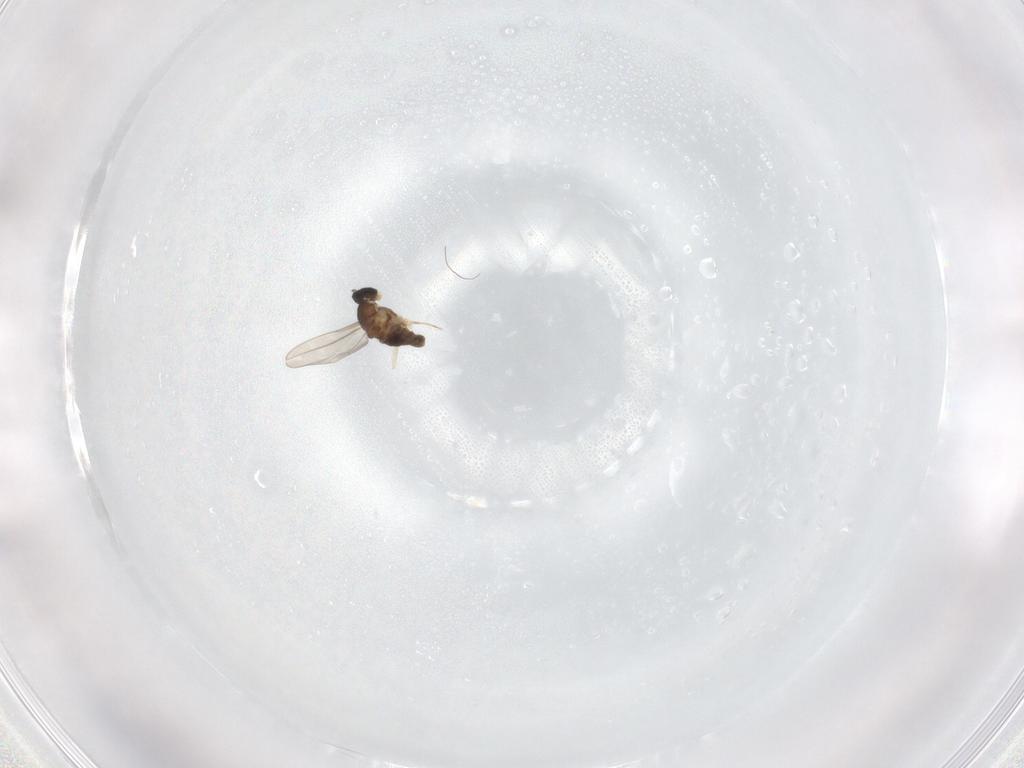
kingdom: Animalia
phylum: Arthropoda
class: Insecta
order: Diptera
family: Cecidomyiidae
